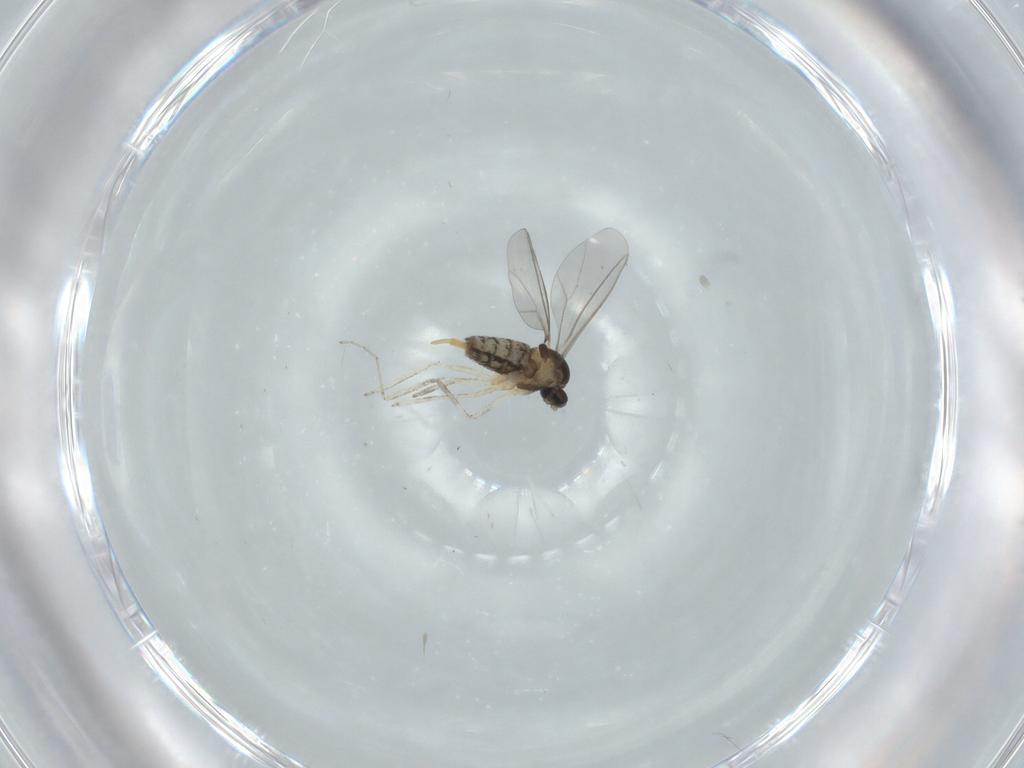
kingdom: Animalia
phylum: Arthropoda
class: Insecta
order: Diptera
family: Cecidomyiidae
